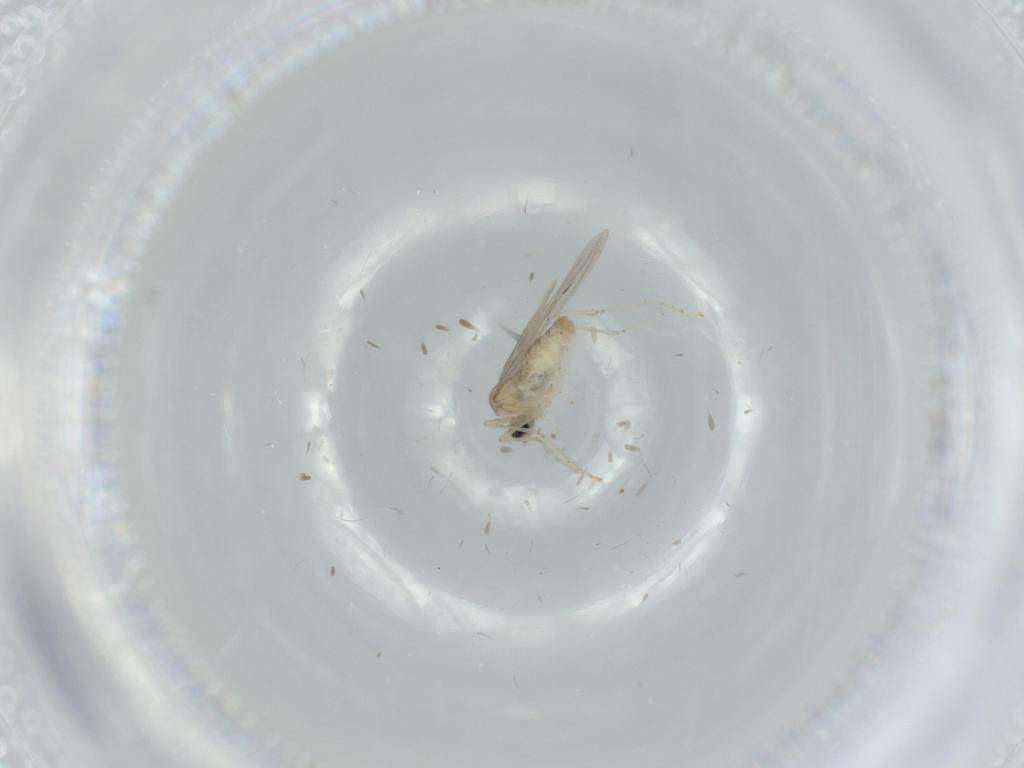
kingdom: Animalia
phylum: Arthropoda
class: Insecta
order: Diptera
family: Cecidomyiidae
